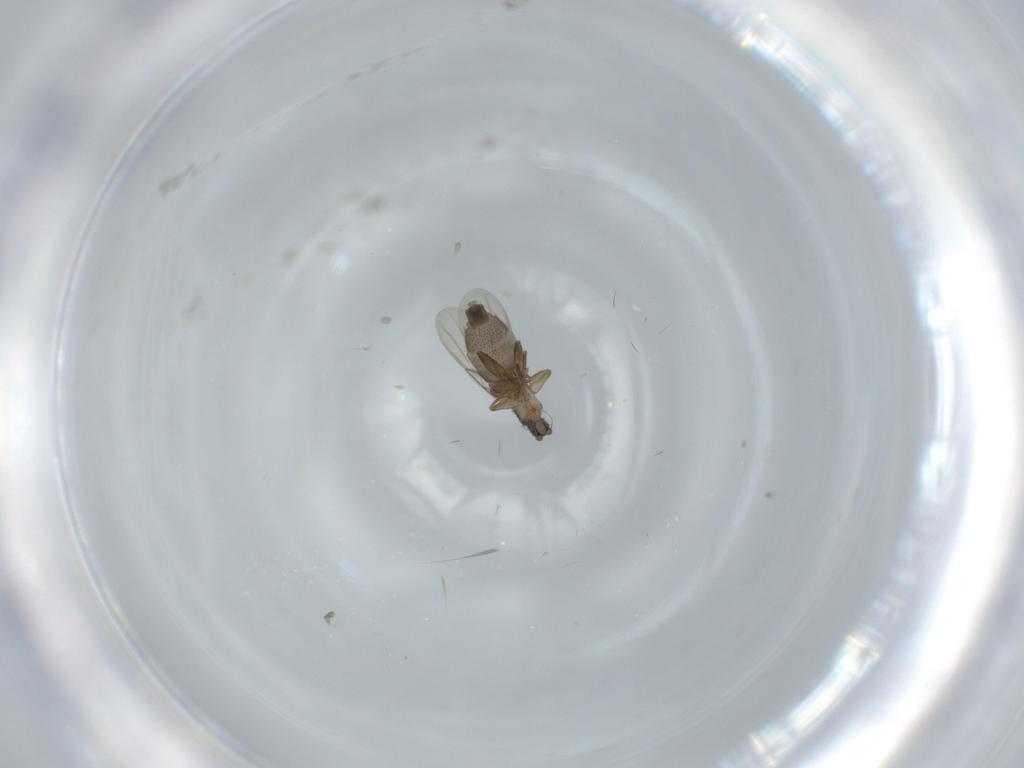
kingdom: Animalia
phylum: Arthropoda
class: Insecta
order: Diptera
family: Phoridae
